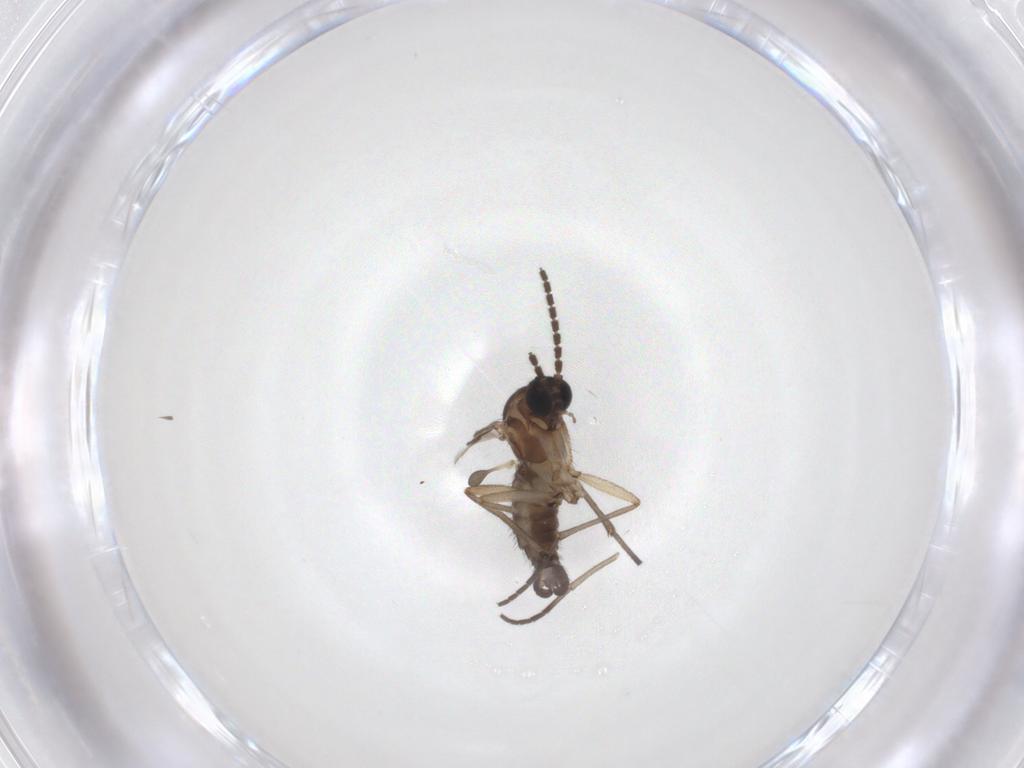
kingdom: Animalia
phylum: Arthropoda
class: Insecta
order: Diptera
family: Sciaridae
